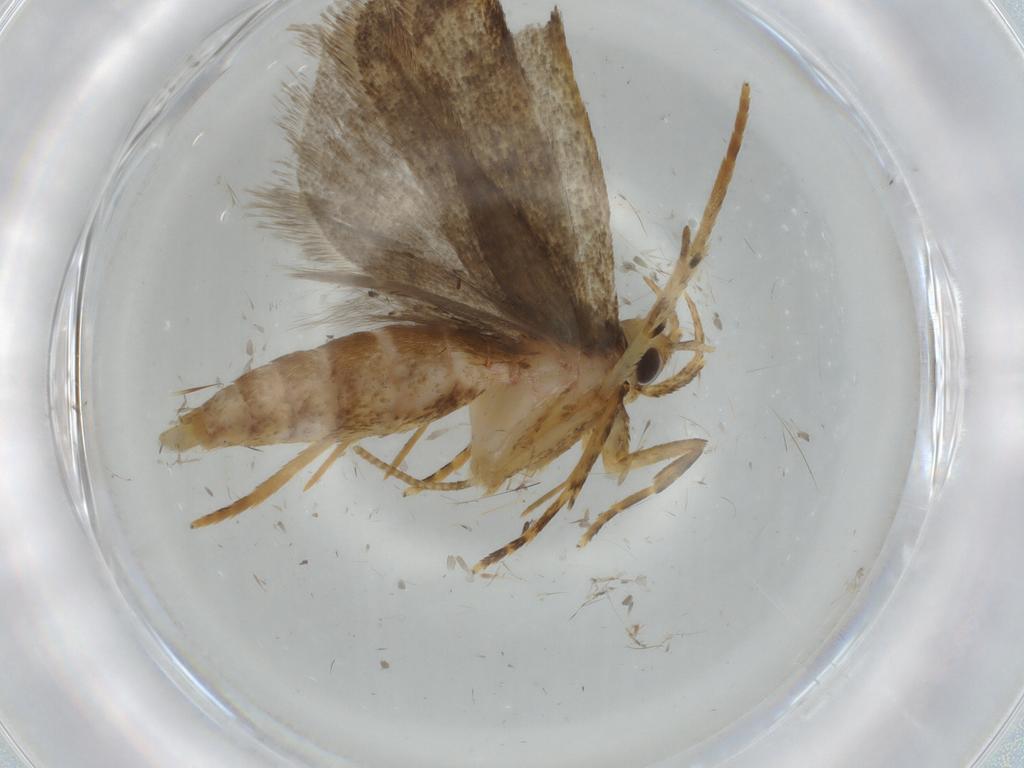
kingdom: Animalia
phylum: Arthropoda
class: Insecta
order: Lepidoptera
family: Autostichidae
